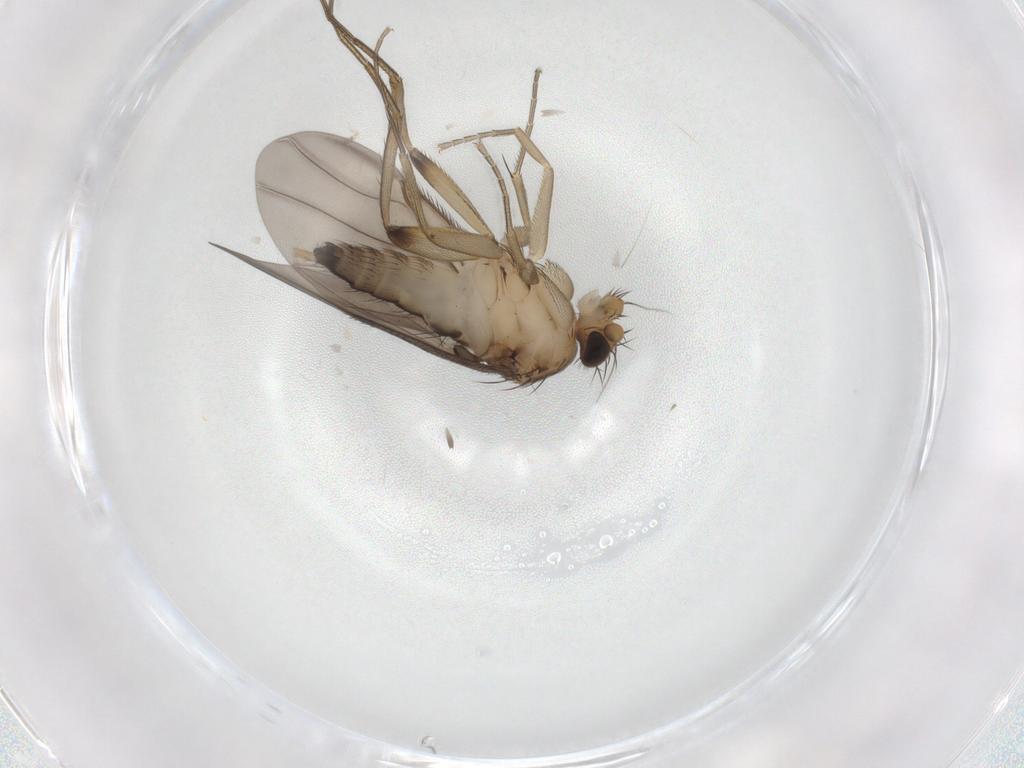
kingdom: Animalia
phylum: Arthropoda
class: Insecta
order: Diptera
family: Phoridae
